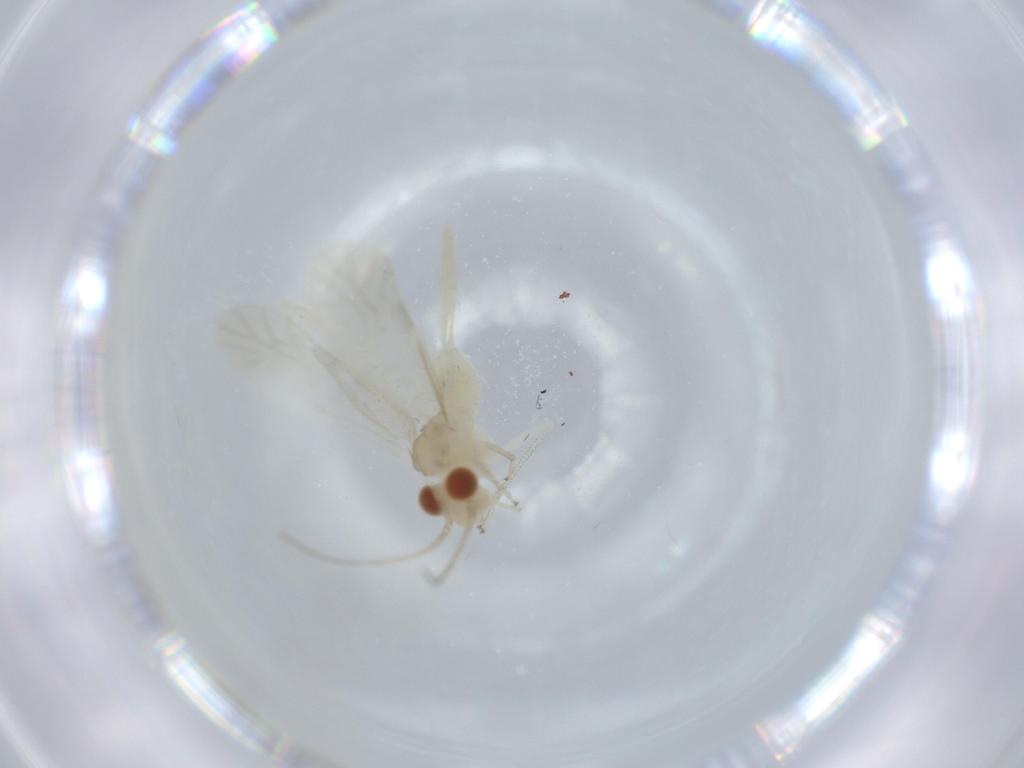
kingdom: Animalia
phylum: Arthropoda
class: Insecta
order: Psocodea
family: Caeciliusidae
